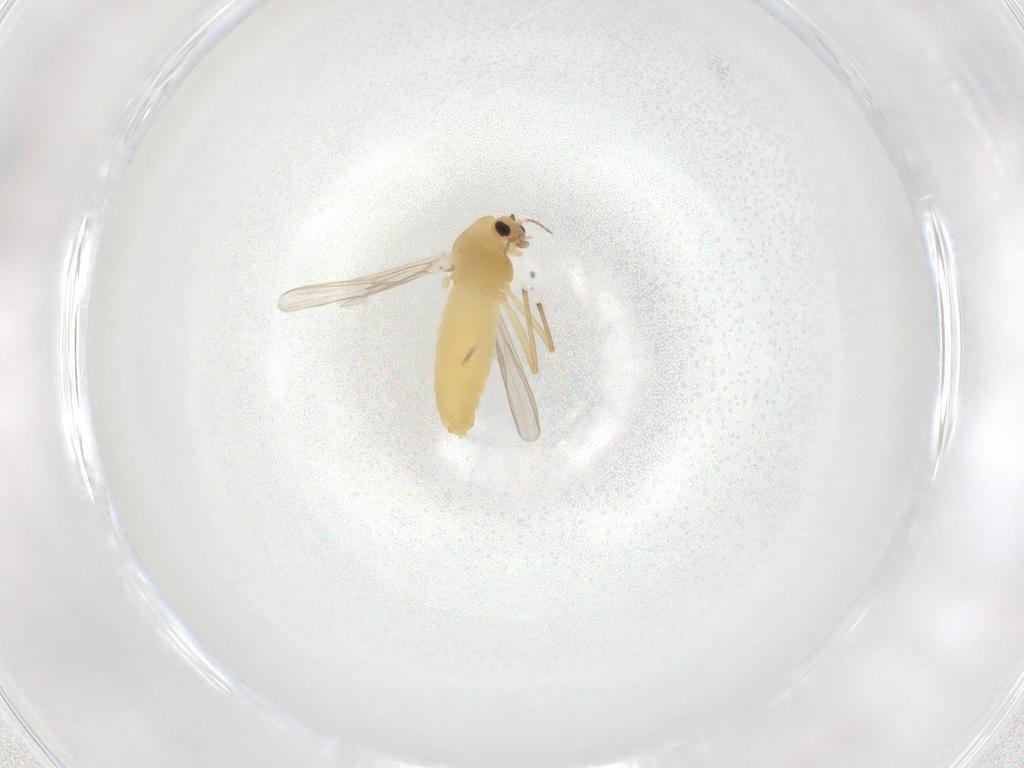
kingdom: Animalia
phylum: Arthropoda
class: Insecta
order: Diptera
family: Chironomidae
